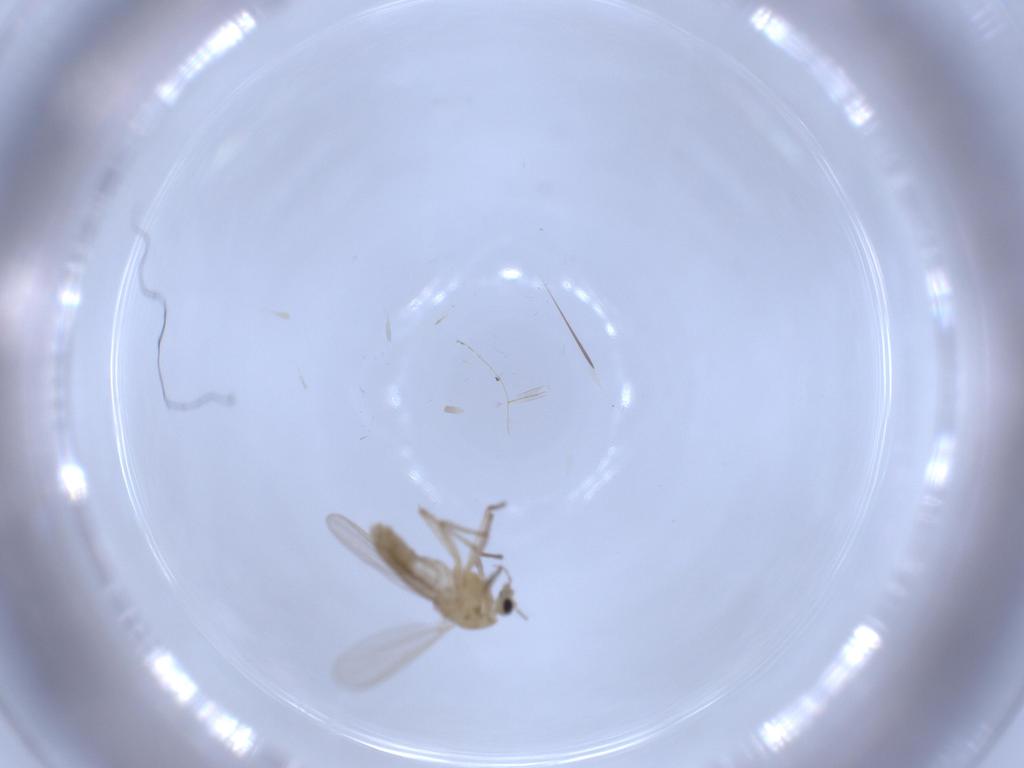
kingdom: Animalia
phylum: Arthropoda
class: Insecta
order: Diptera
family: Chironomidae
